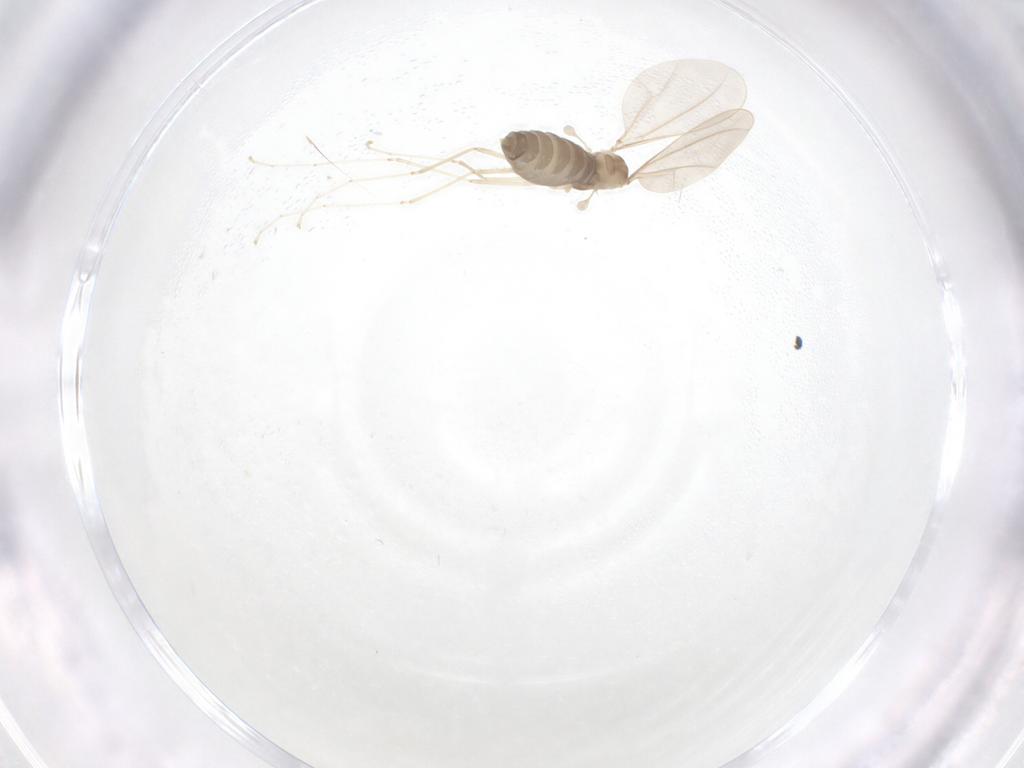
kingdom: Animalia
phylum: Arthropoda
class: Insecta
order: Diptera
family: Cecidomyiidae
